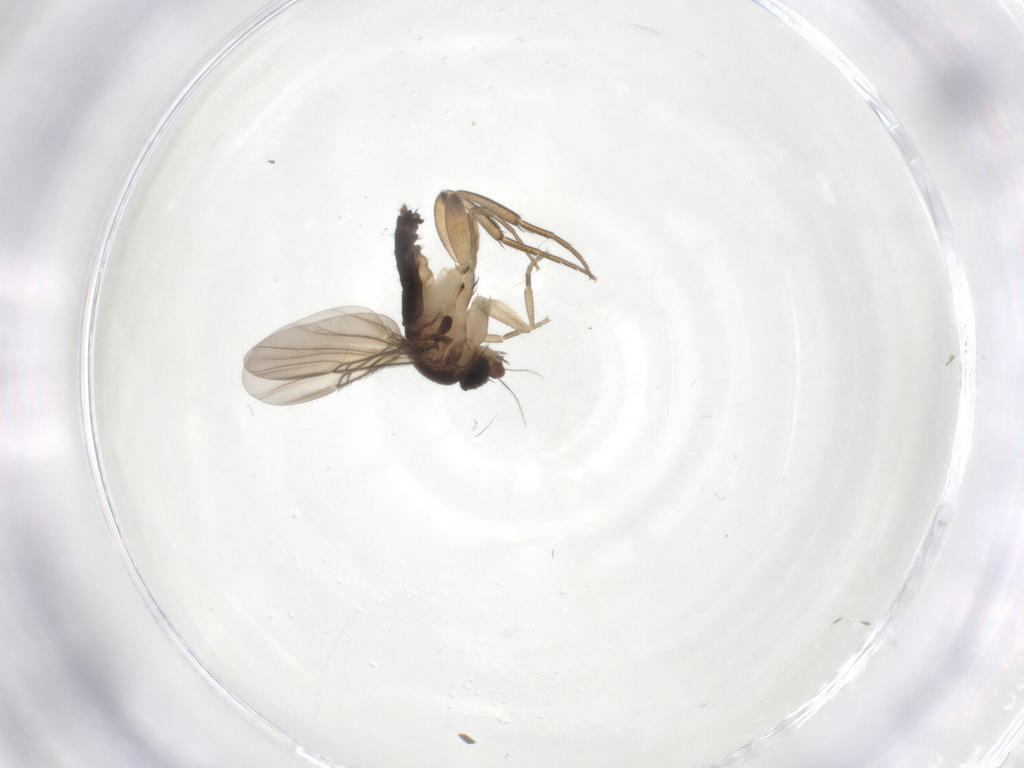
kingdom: Animalia
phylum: Arthropoda
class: Insecta
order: Diptera
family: Phoridae
